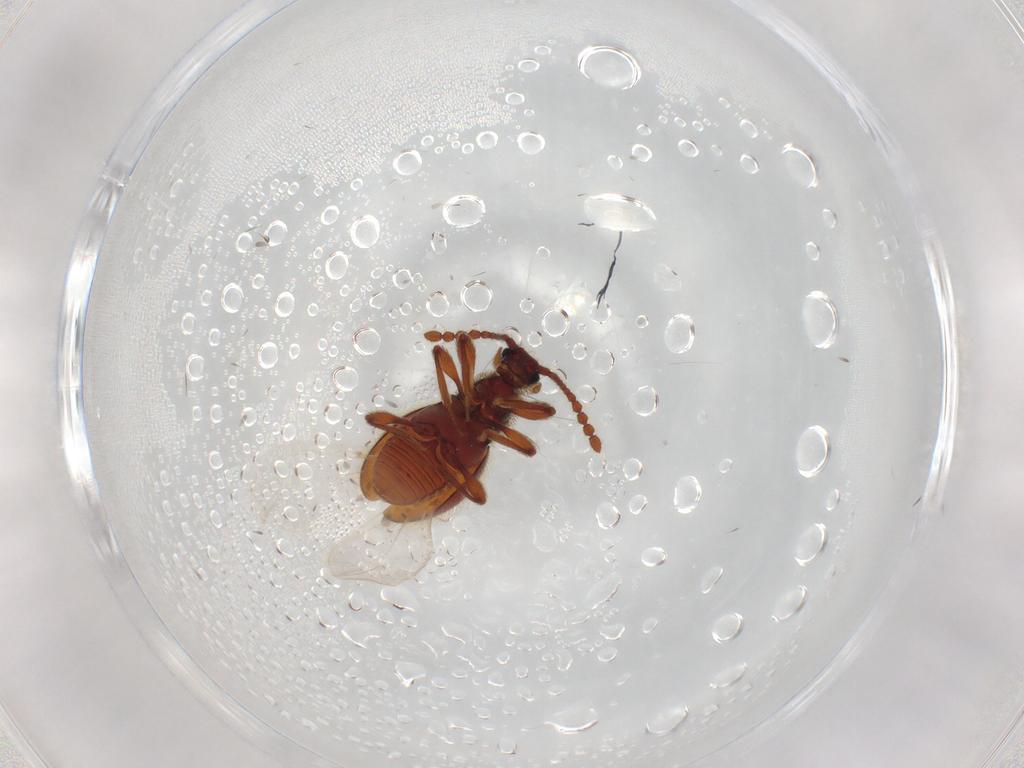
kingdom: Animalia
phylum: Arthropoda
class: Insecta
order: Coleoptera
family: Staphylinidae
